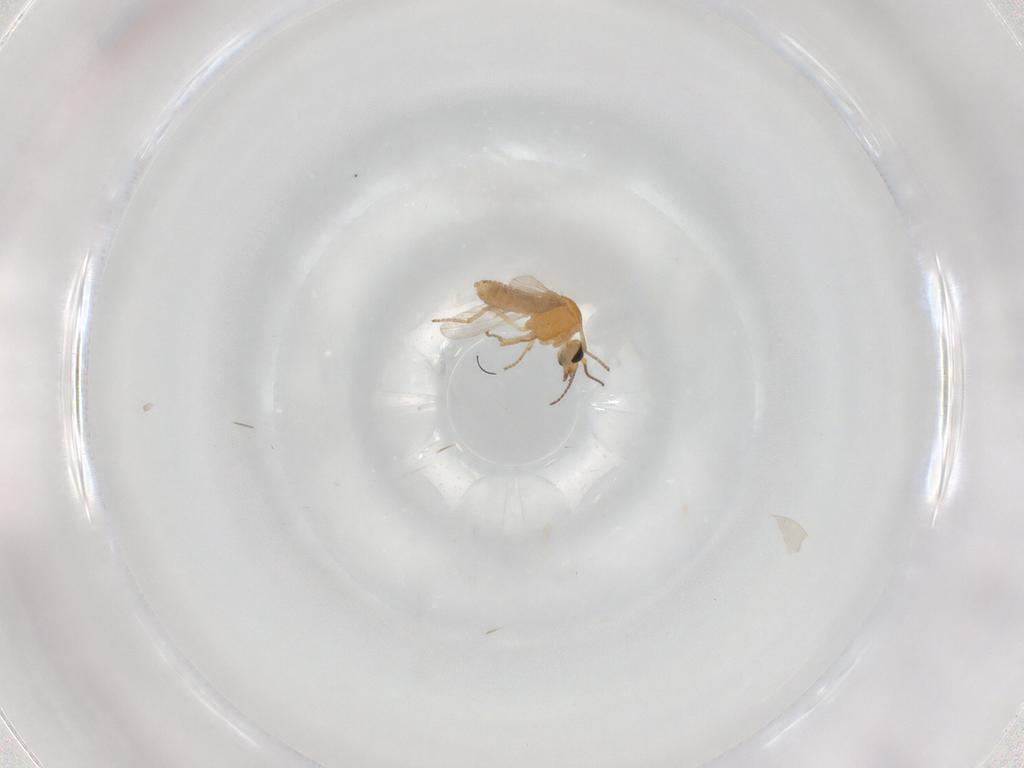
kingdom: Animalia
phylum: Arthropoda
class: Insecta
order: Diptera
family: Ceratopogonidae
